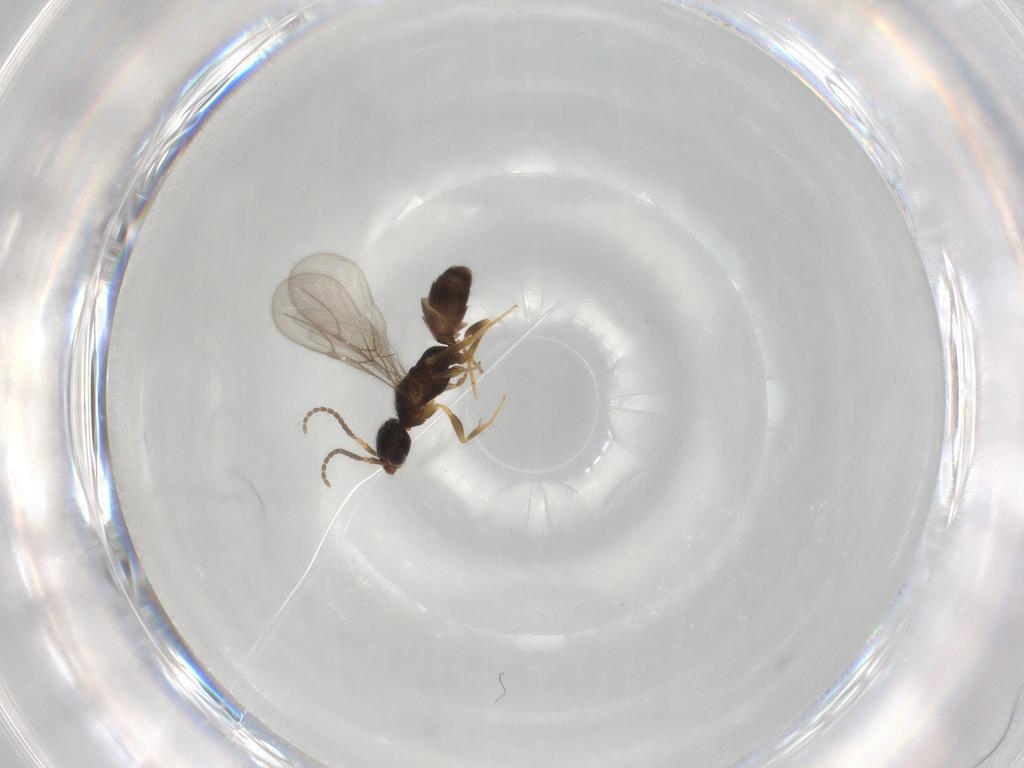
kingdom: Animalia
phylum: Arthropoda
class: Insecta
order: Hymenoptera
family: Bethylidae
